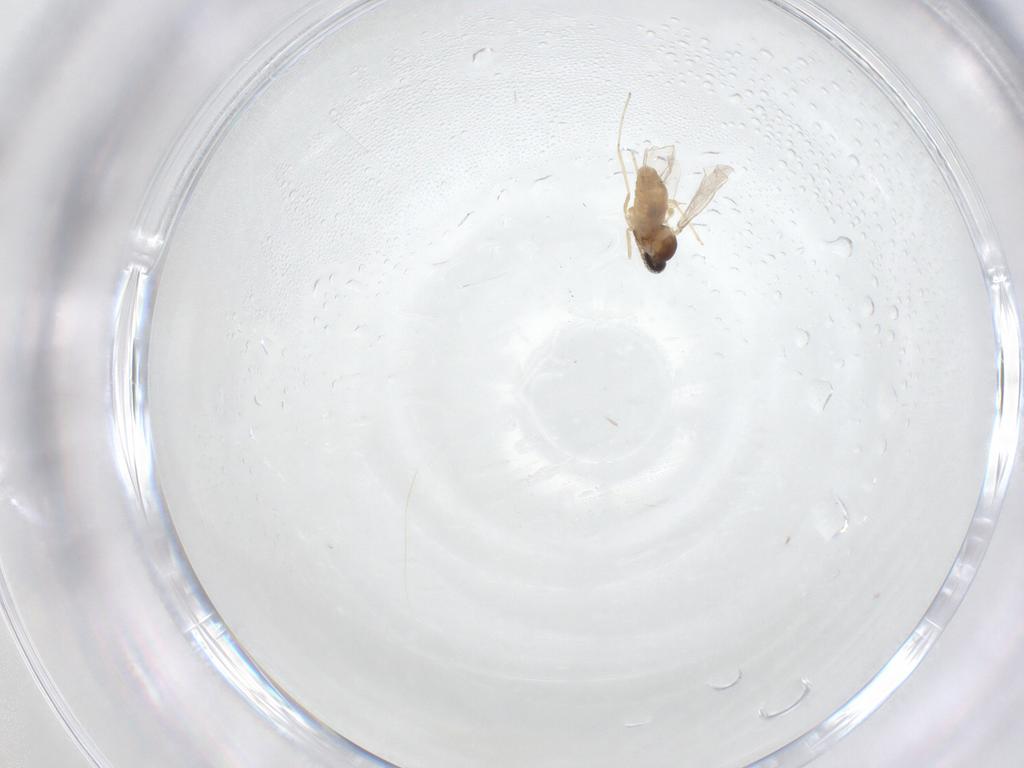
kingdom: Animalia
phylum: Arthropoda
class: Insecta
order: Diptera
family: Cecidomyiidae
